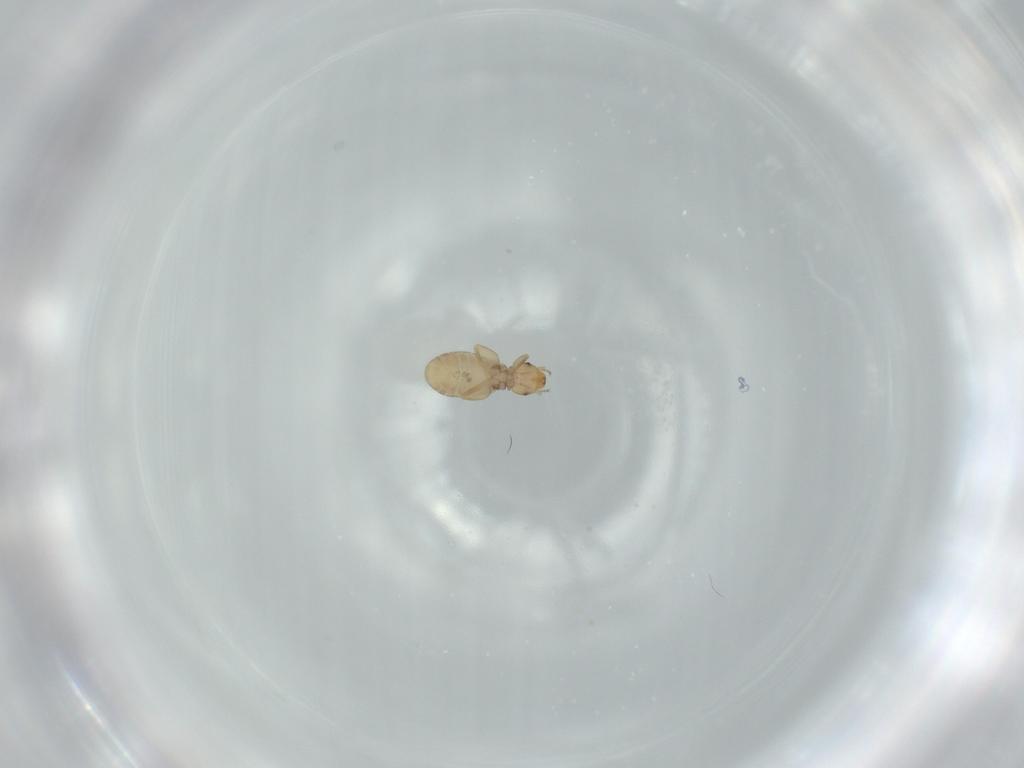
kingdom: Animalia
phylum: Arthropoda
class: Insecta
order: Psocodea
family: Liposcelididae
